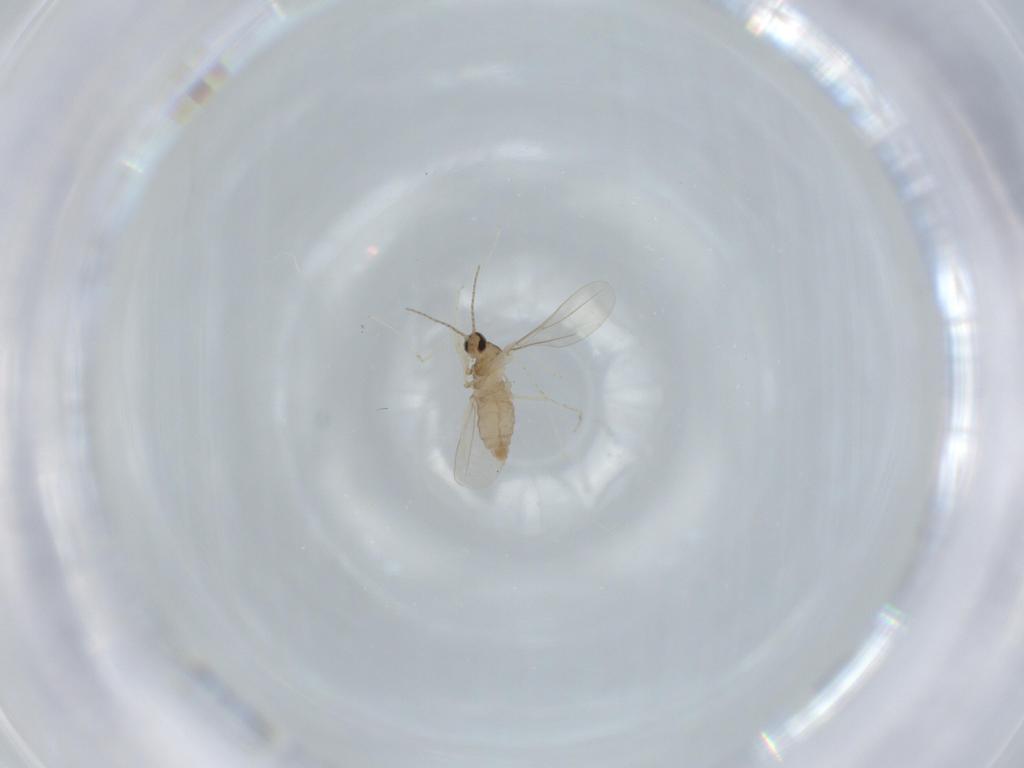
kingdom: Animalia
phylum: Arthropoda
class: Insecta
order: Diptera
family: Cecidomyiidae
